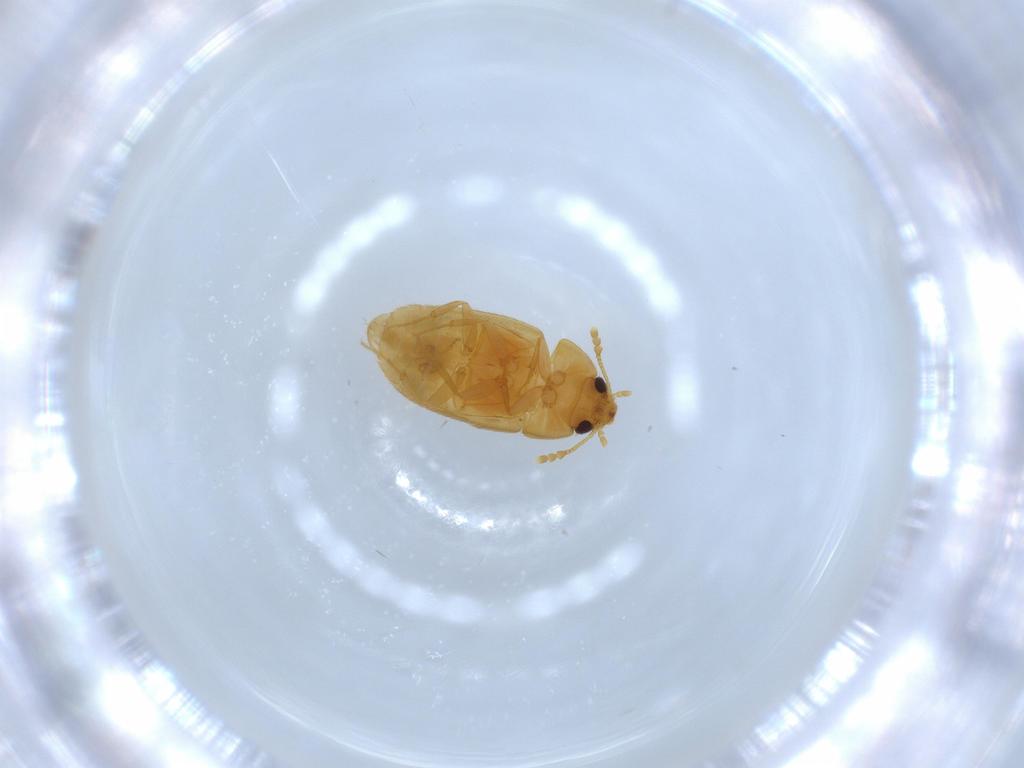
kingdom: Animalia
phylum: Arthropoda
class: Insecta
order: Coleoptera
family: Mycetophagidae
